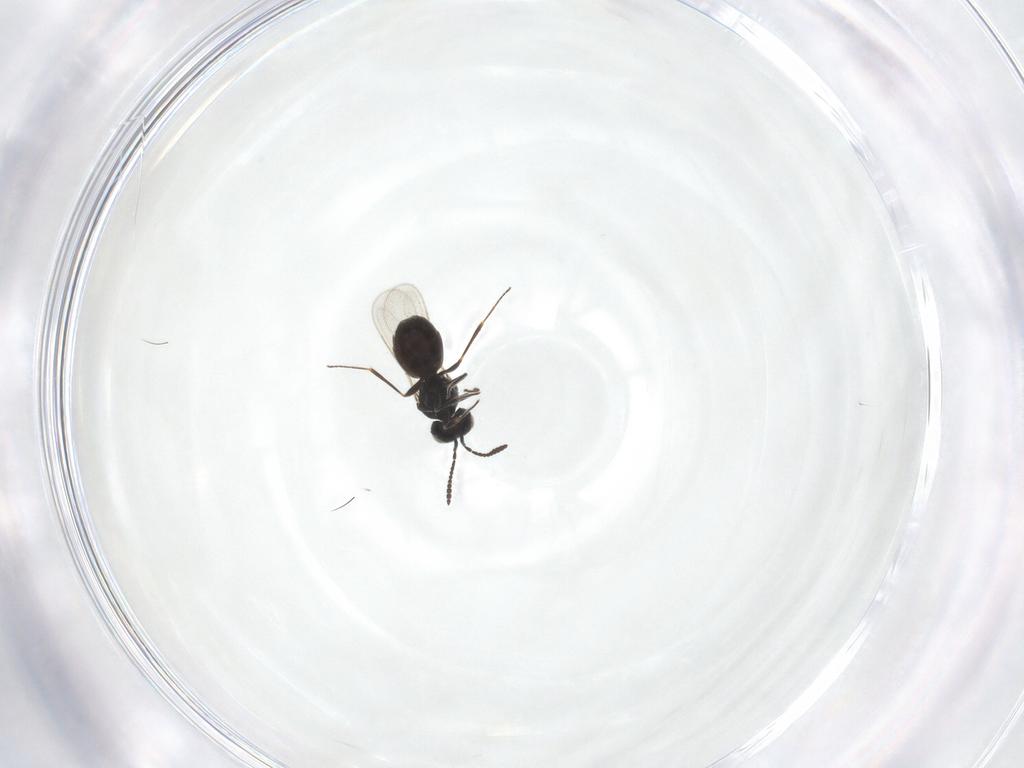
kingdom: Animalia
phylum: Arthropoda
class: Insecta
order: Hymenoptera
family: Scelionidae
